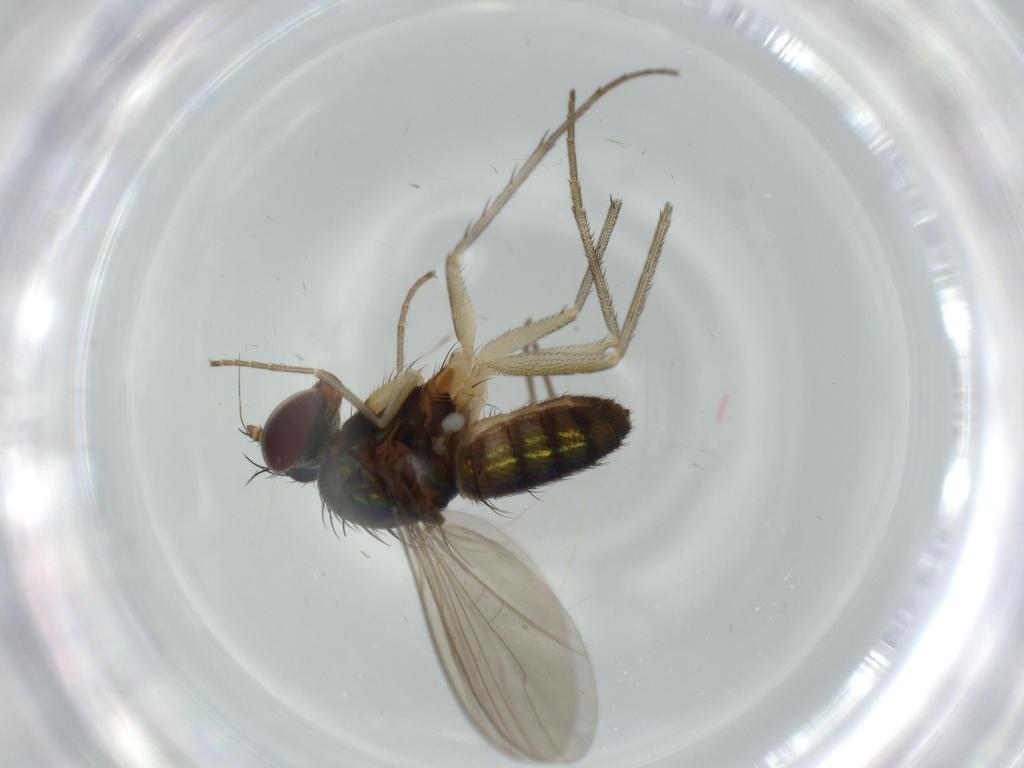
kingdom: Animalia
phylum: Arthropoda
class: Insecta
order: Diptera
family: Dolichopodidae
